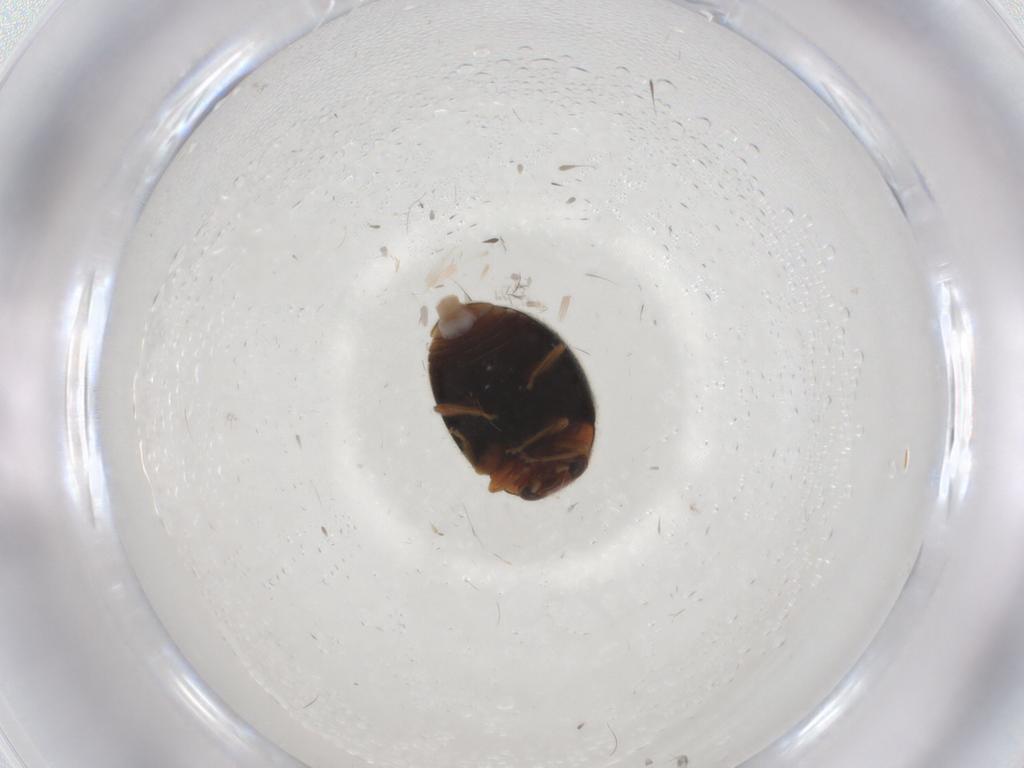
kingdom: Animalia
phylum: Arthropoda
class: Insecta
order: Coleoptera
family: Coccinellidae
